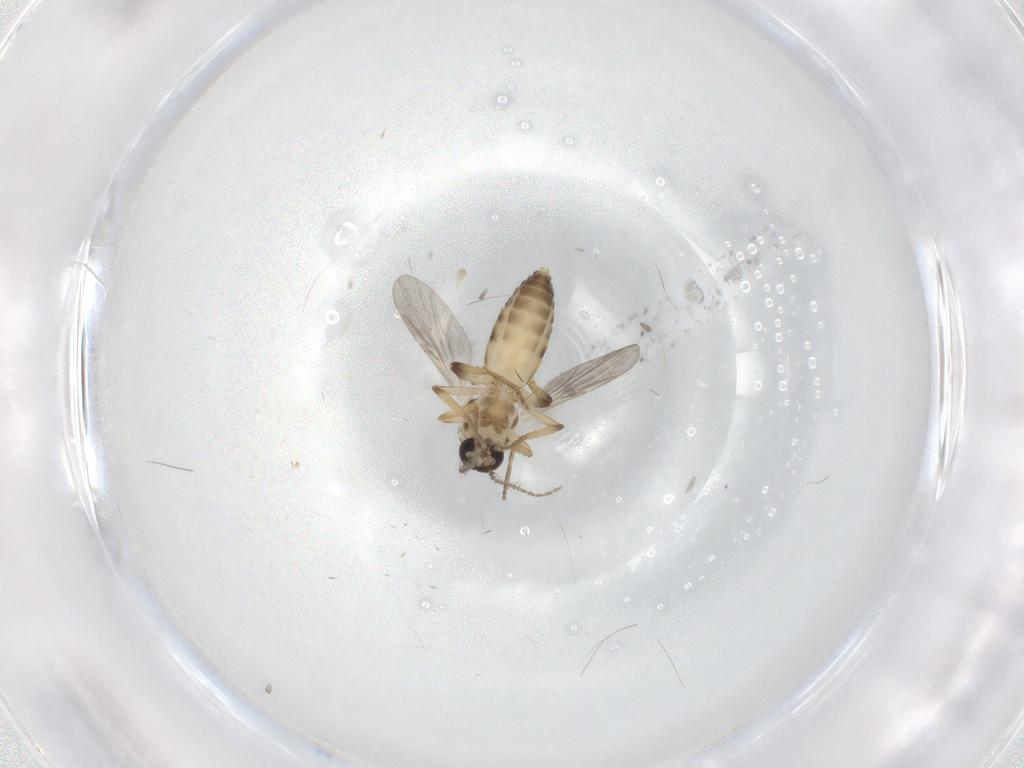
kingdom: Animalia
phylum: Arthropoda
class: Insecta
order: Diptera
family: Ceratopogonidae
